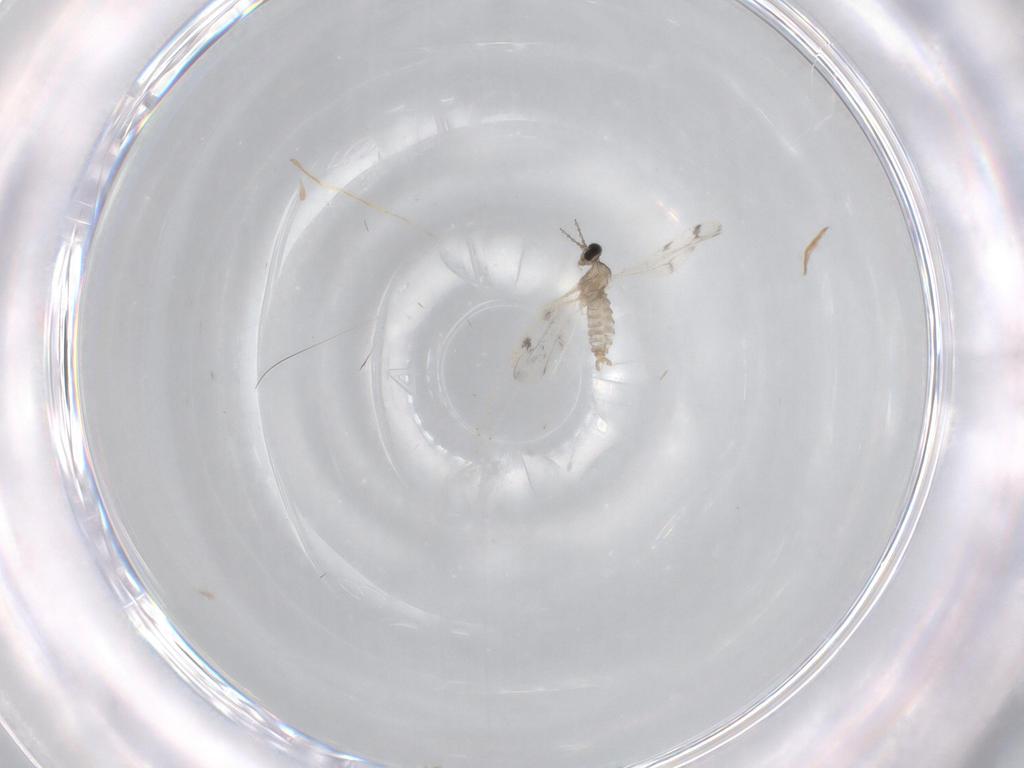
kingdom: Animalia
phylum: Arthropoda
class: Insecta
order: Diptera
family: Cecidomyiidae
